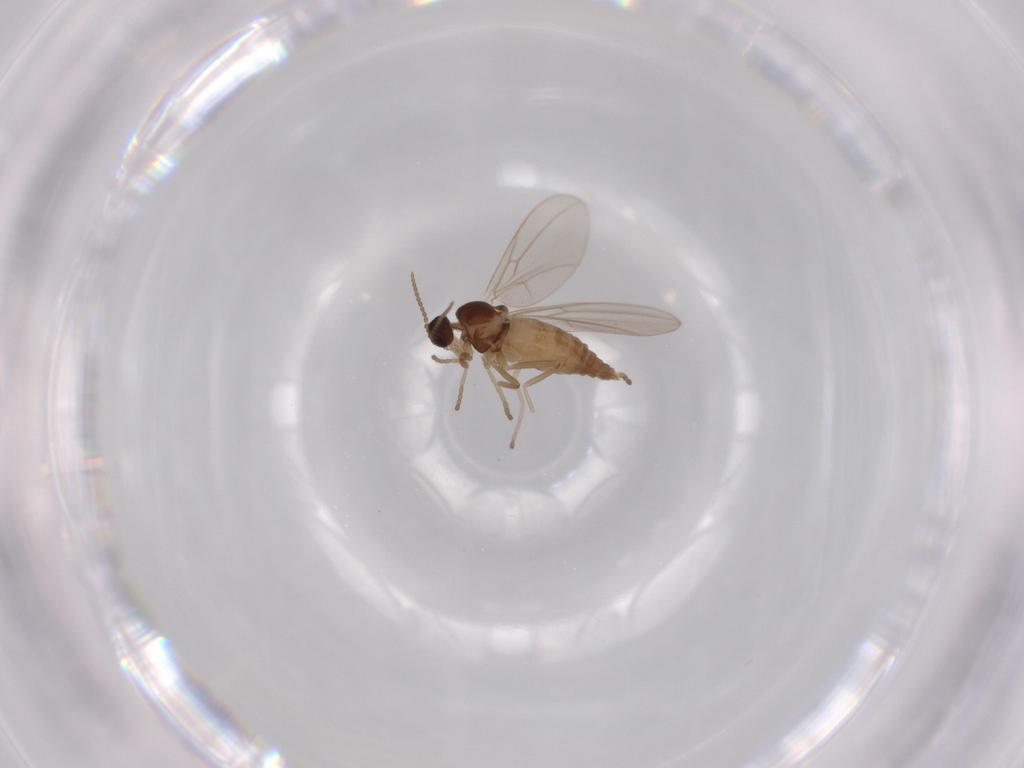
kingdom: Animalia
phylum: Arthropoda
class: Insecta
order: Diptera
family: Cecidomyiidae
